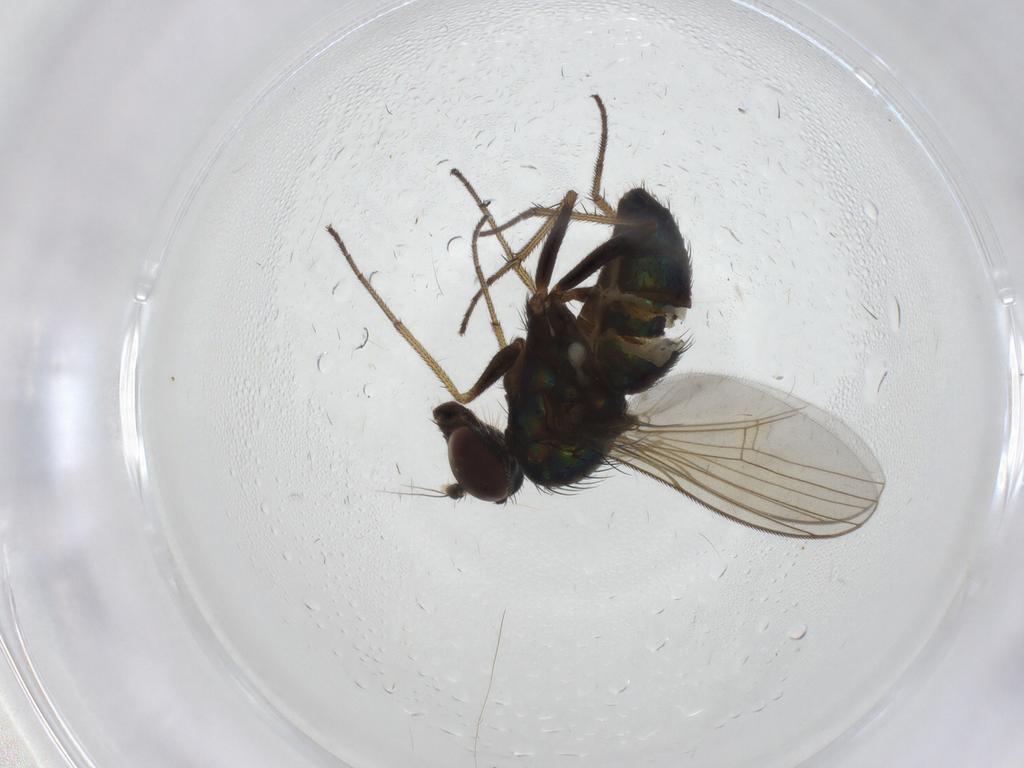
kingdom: Animalia
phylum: Arthropoda
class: Insecta
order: Diptera
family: Dolichopodidae
